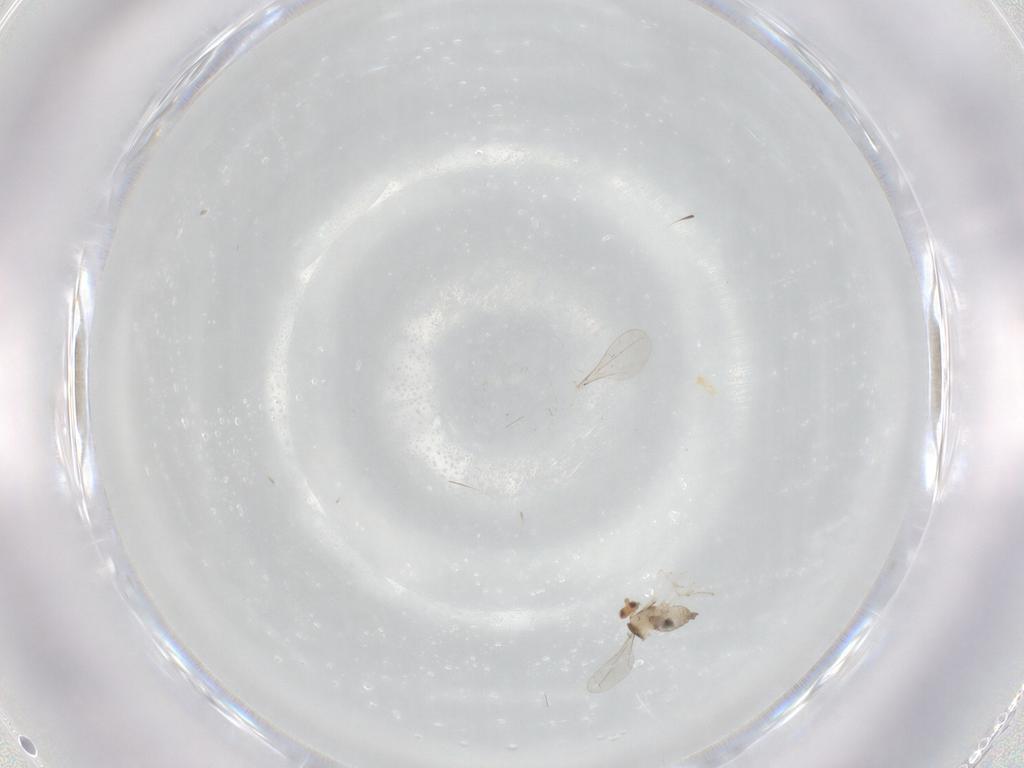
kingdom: Animalia
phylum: Arthropoda
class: Insecta
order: Diptera
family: Cecidomyiidae
